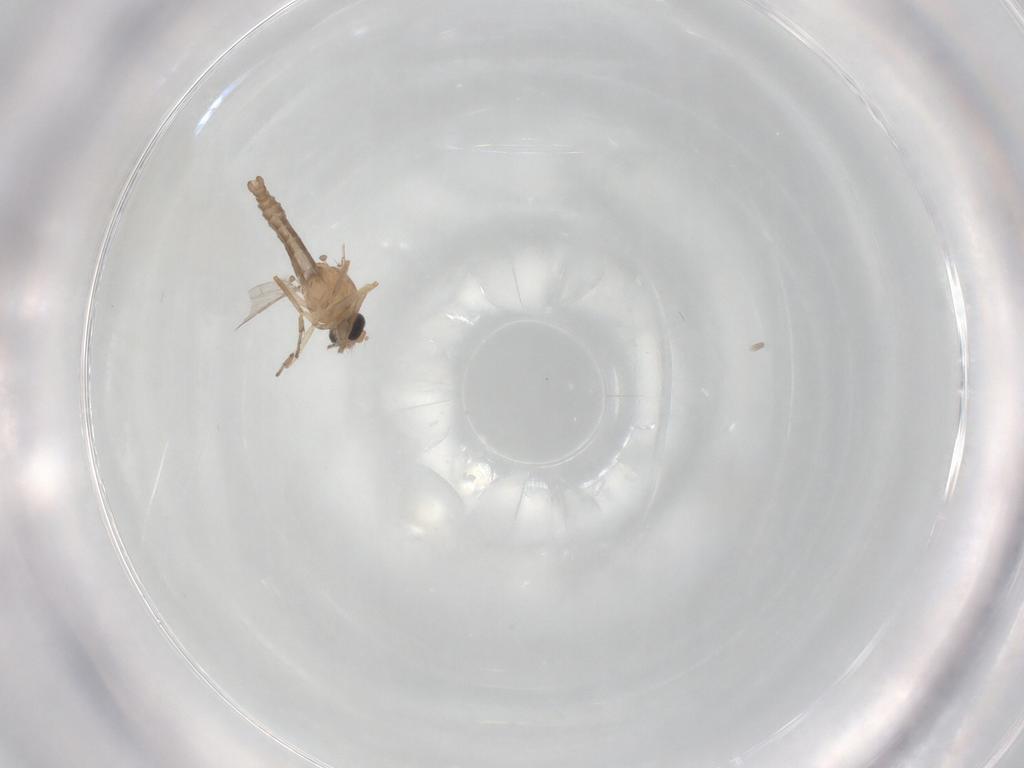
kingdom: Animalia
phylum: Arthropoda
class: Insecta
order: Diptera
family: Ceratopogonidae
